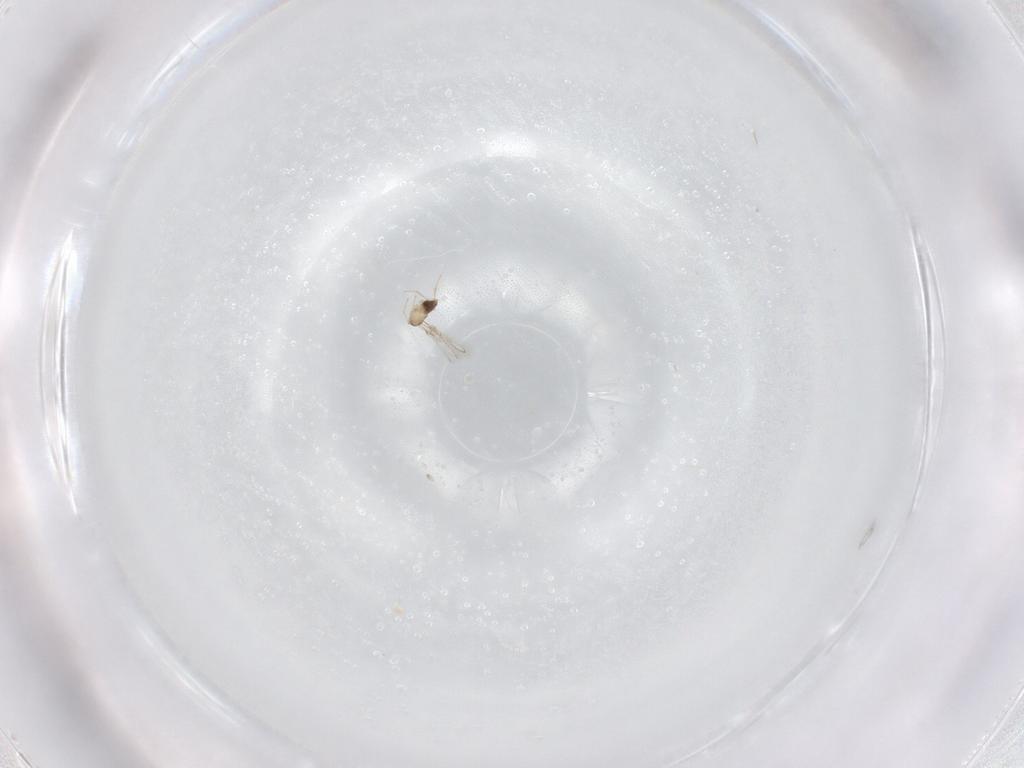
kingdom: Animalia
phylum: Arthropoda
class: Insecta
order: Hymenoptera
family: Mymaridae
